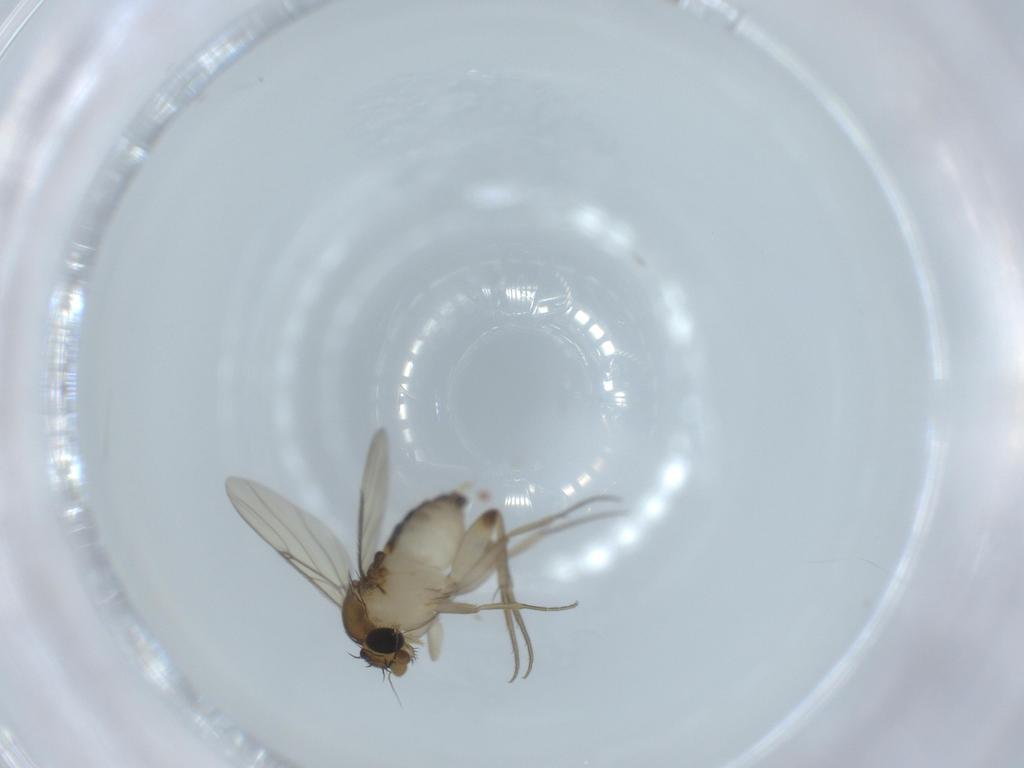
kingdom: Animalia
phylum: Arthropoda
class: Insecta
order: Diptera
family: Phoridae
